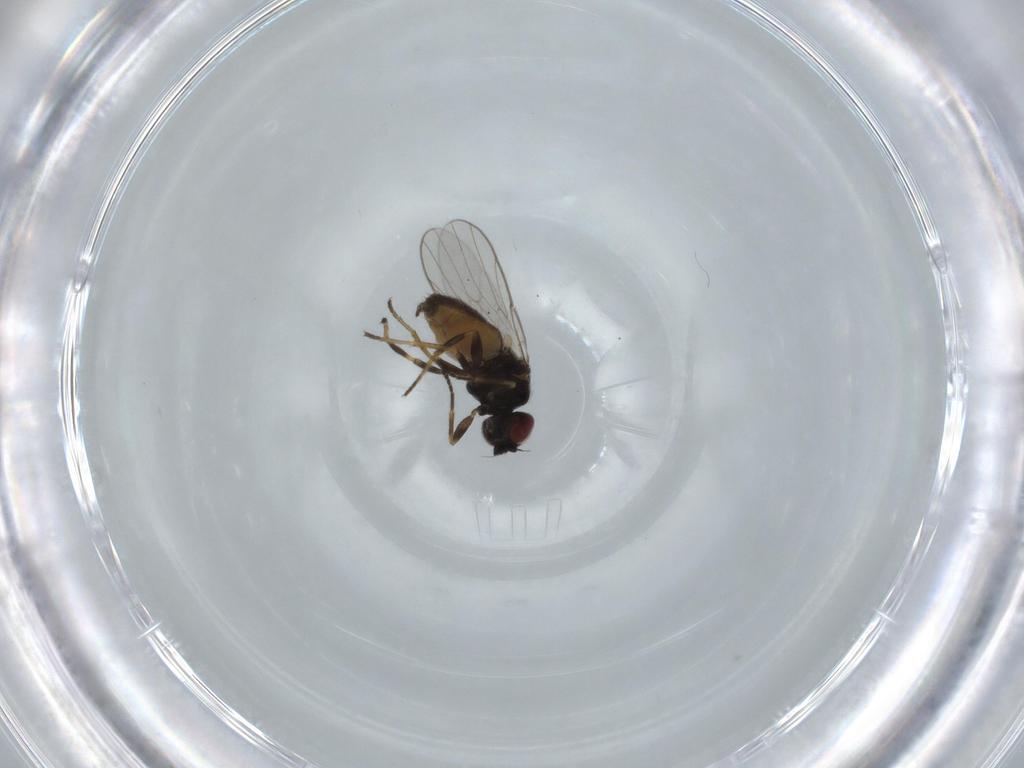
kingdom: Animalia
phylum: Arthropoda
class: Insecta
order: Diptera
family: Chloropidae
